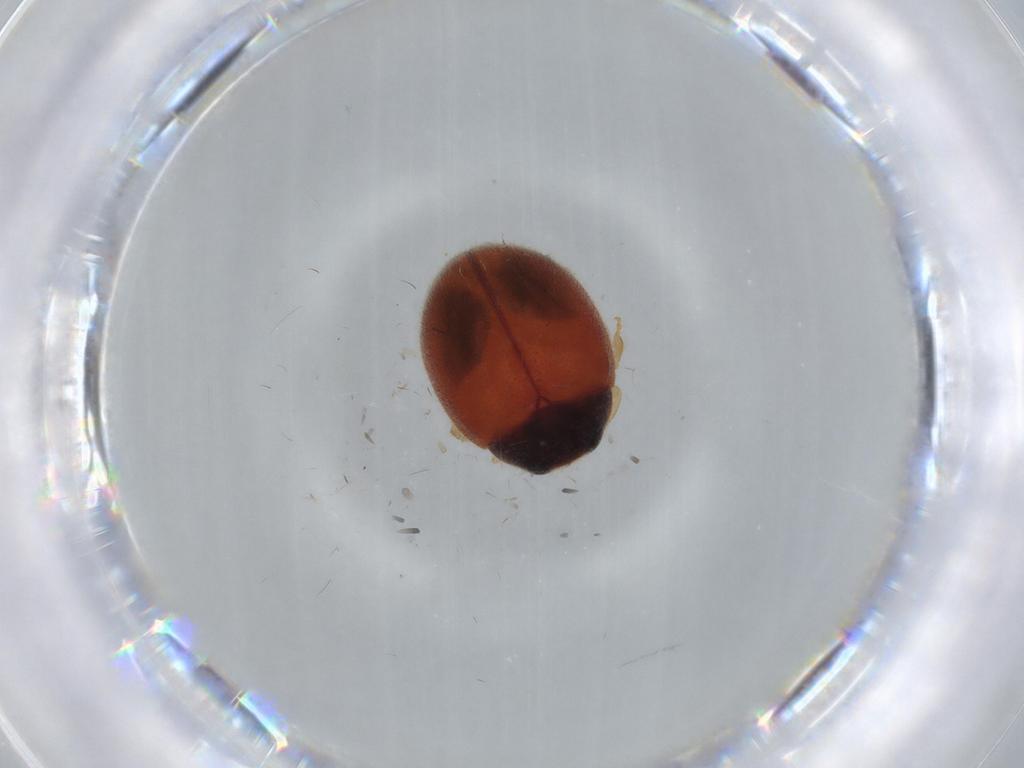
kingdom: Animalia
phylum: Arthropoda
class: Insecta
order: Coleoptera
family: Coccinellidae
